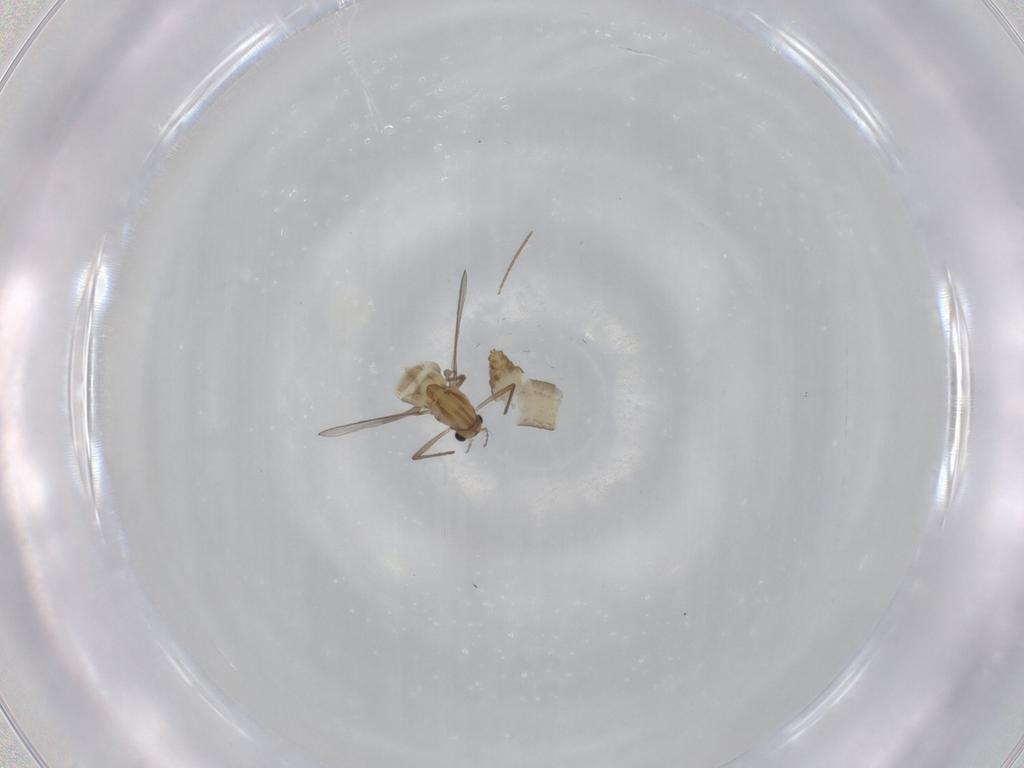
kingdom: Animalia
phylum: Arthropoda
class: Insecta
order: Diptera
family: Chironomidae
